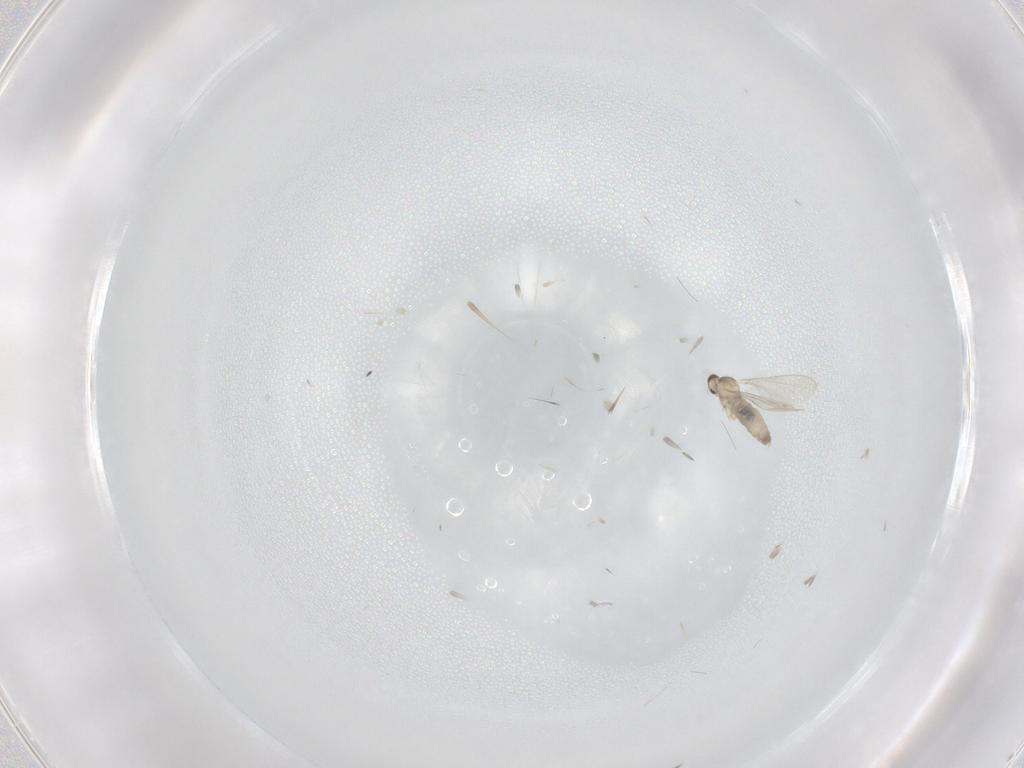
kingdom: Animalia
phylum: Arthropoda
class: Insecta
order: Diptera
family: Cecidomyiidae
